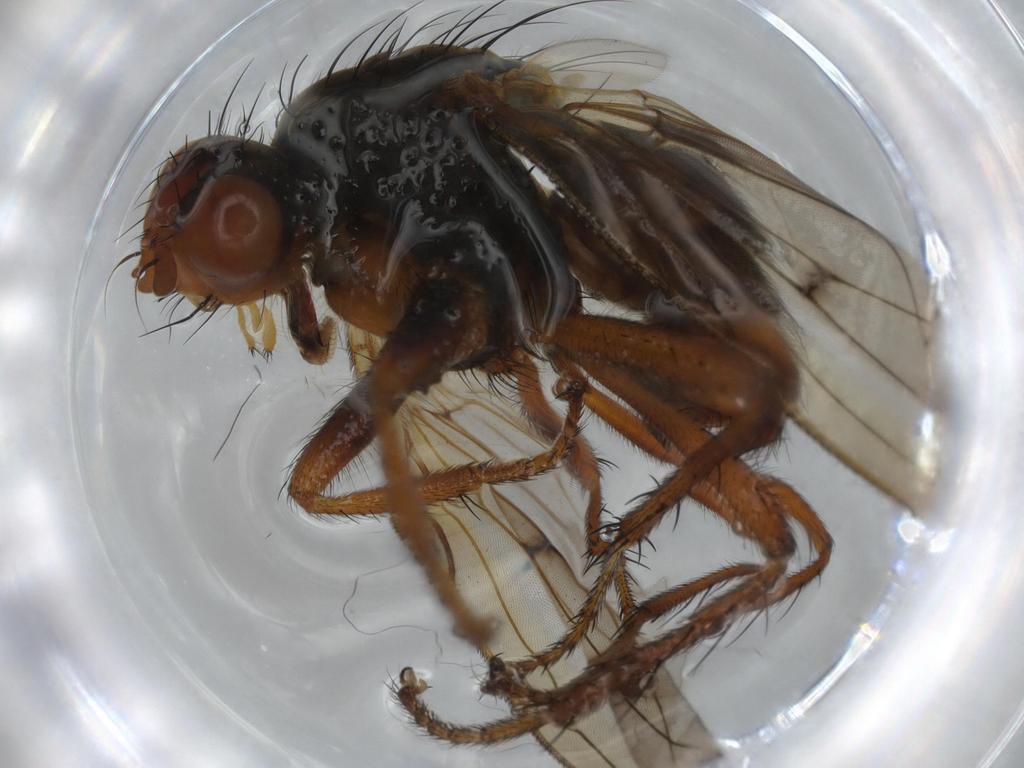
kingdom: Animalia
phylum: Arthropoda
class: Insecta
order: Diptera
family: Scathophagidae
